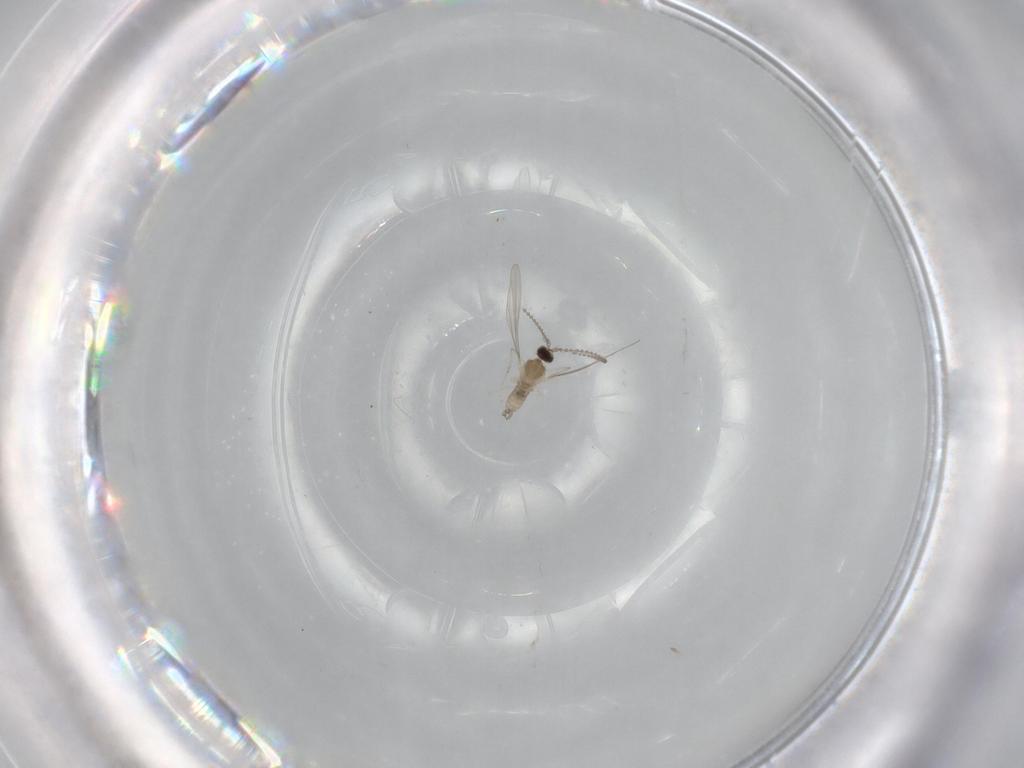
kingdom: Animalia
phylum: Arthropoda
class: Insecta
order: Diptera
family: Cecidomyiidae
